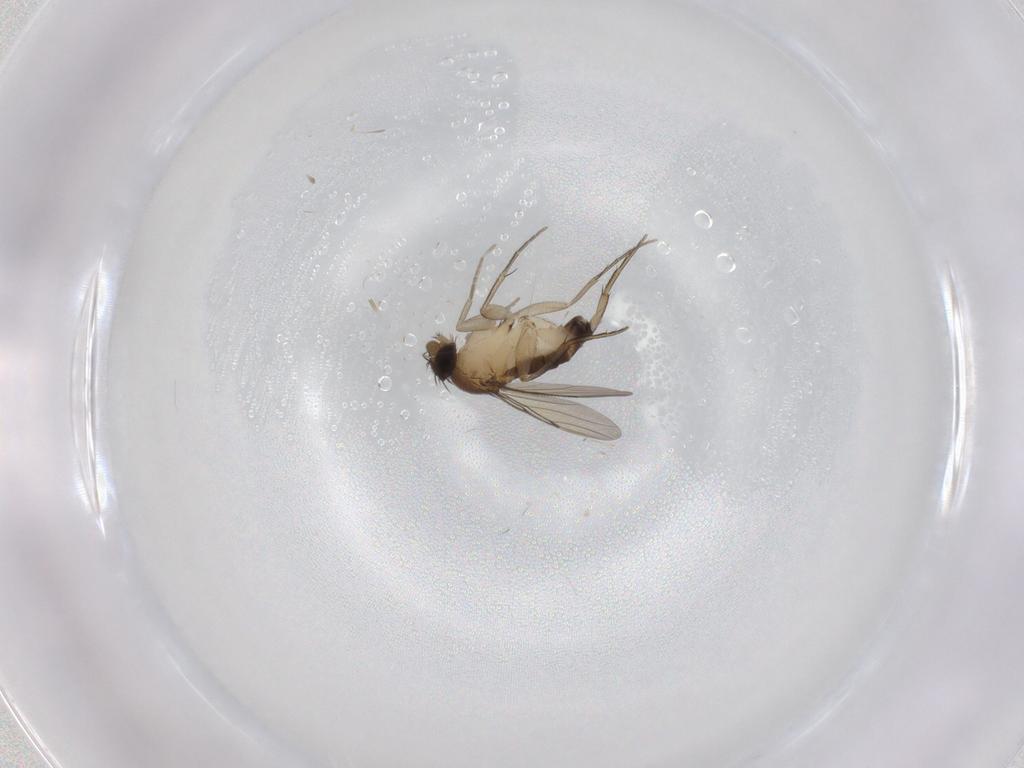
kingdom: Animalia
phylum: Arthropoda
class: Insecta
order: Diptera
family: Phoridae
